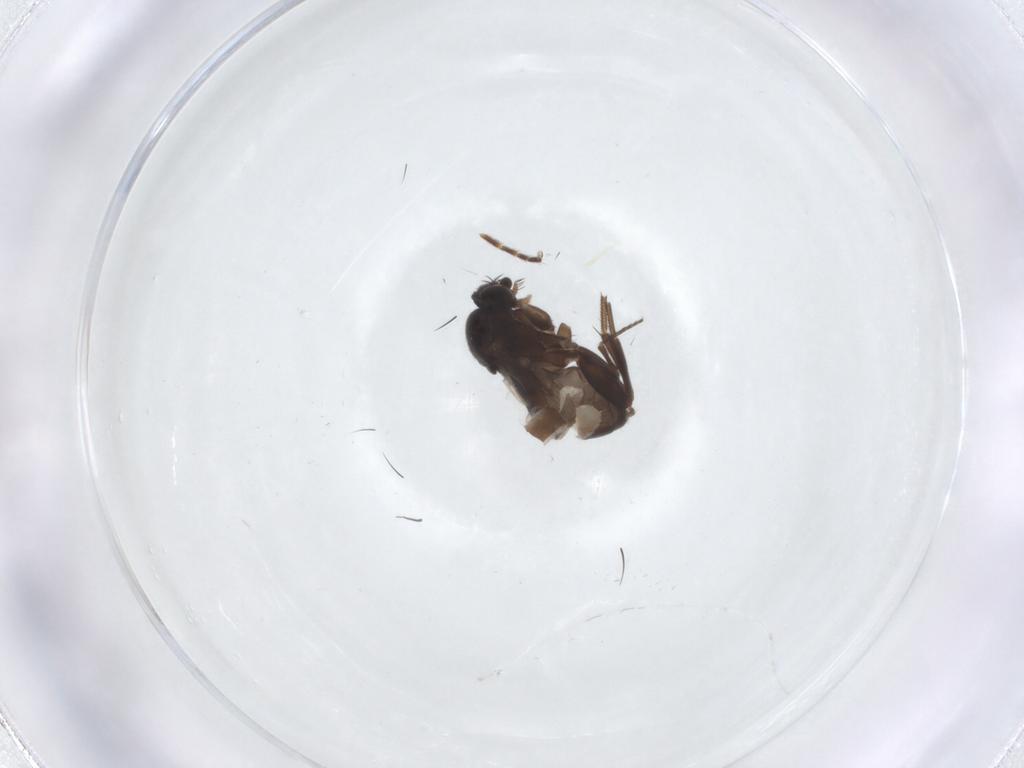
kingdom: Animalia
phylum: Arthropoda
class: Insecta
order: Diptera
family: Phoridae
